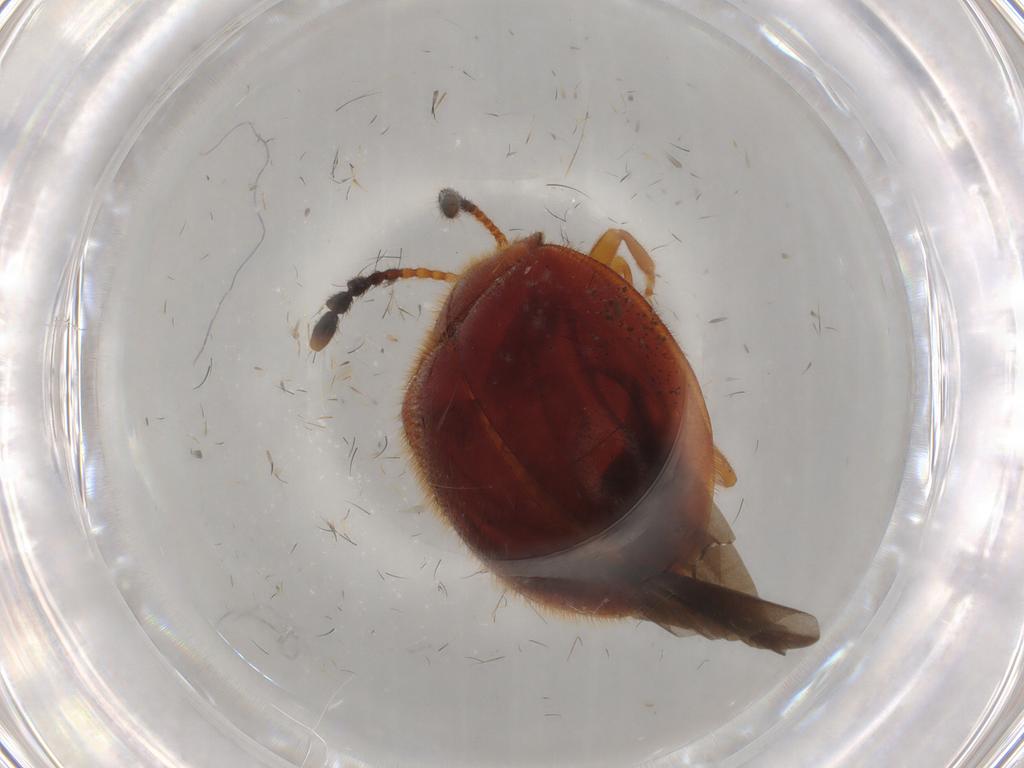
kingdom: Animalia
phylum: Arthropoda
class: Insecta
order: Coleoptera
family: Endomychidae
